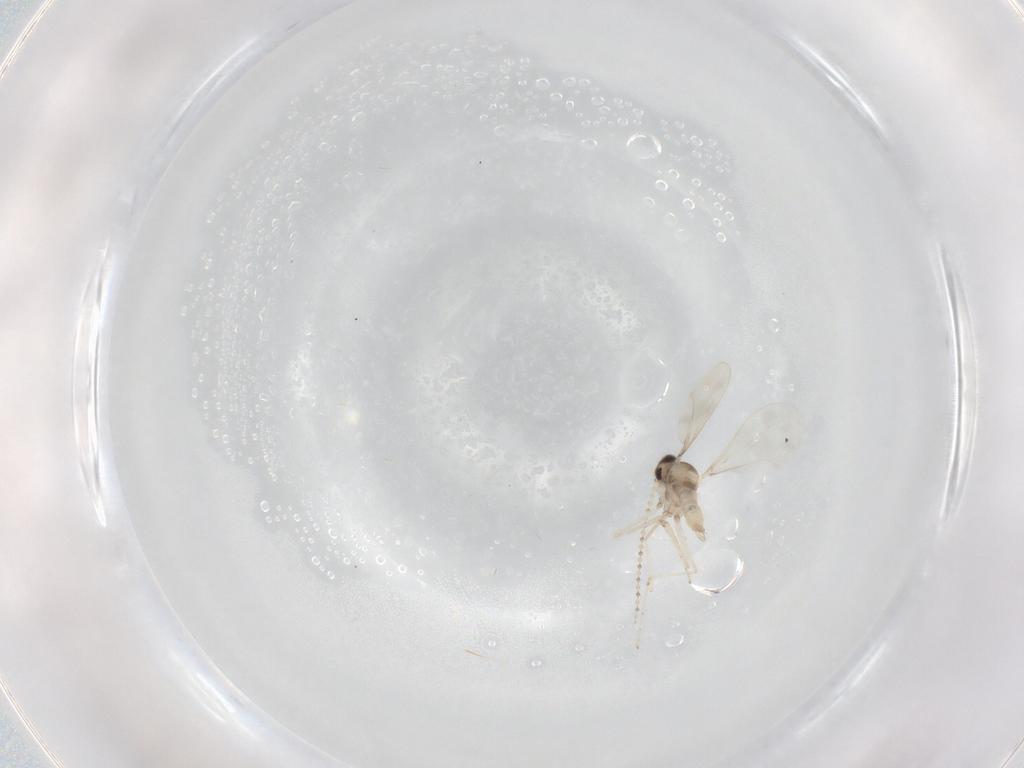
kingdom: Animalia
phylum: Arthropoda
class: Insecta
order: Diptera
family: Cecidomyiidae
